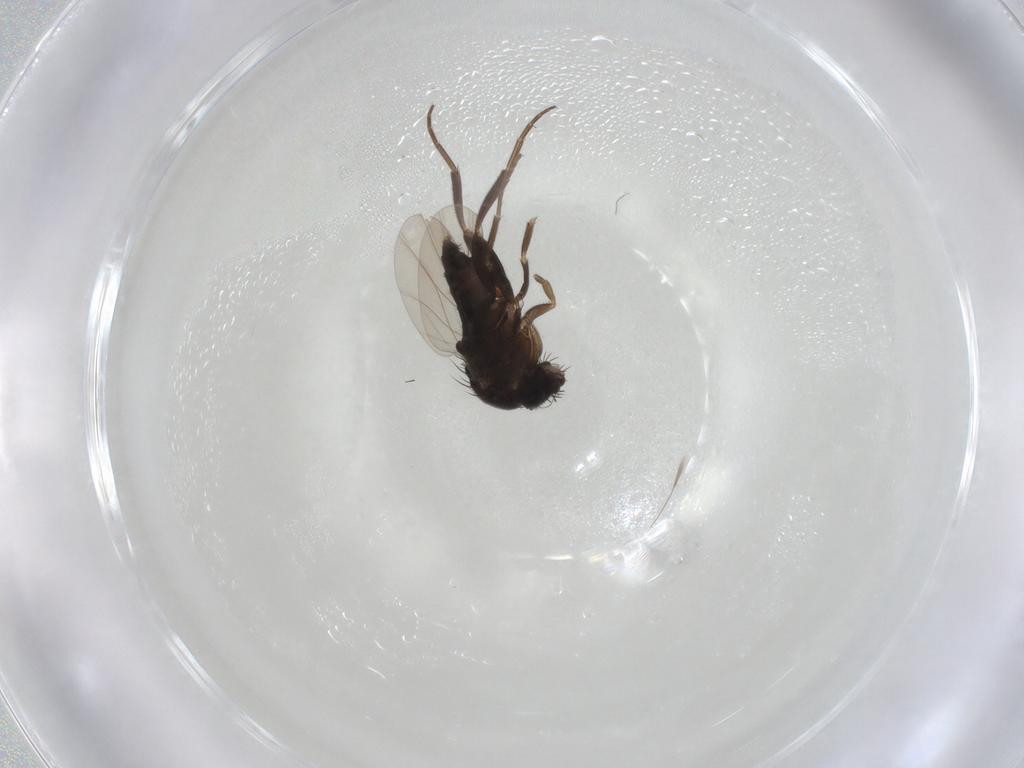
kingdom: Animalia
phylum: Arthropoda
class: Insecta
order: Diptera
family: Phoridae
